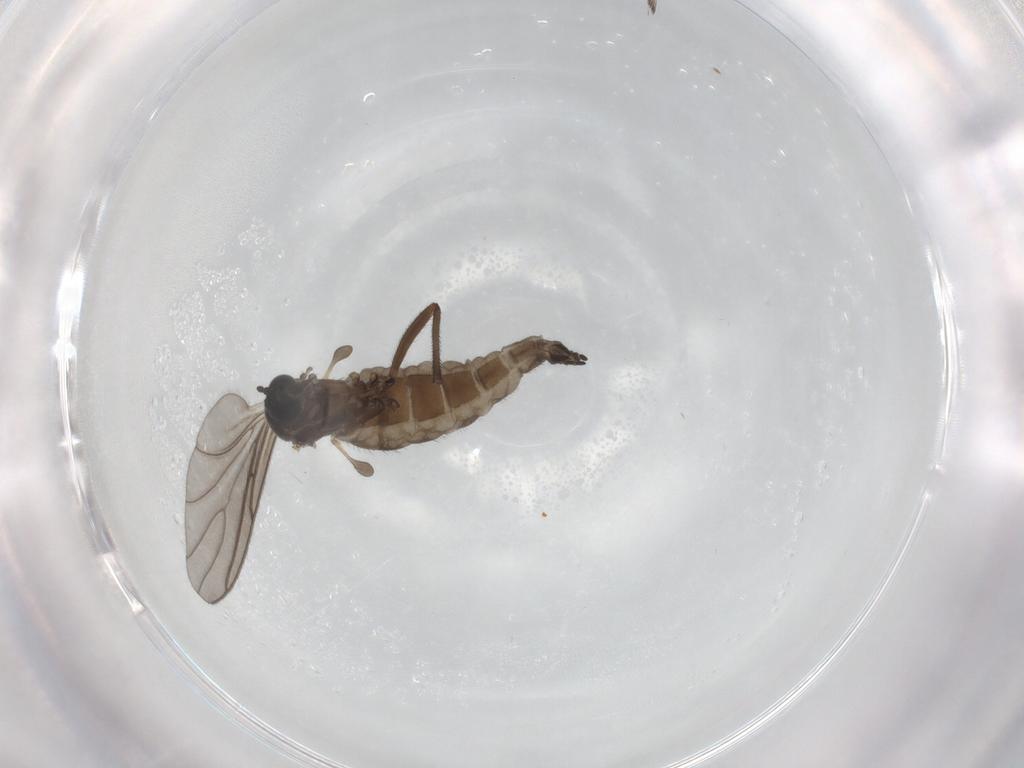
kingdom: Animalia
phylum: Arthropoda
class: Insecta
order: Diptera
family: Sciaridae
